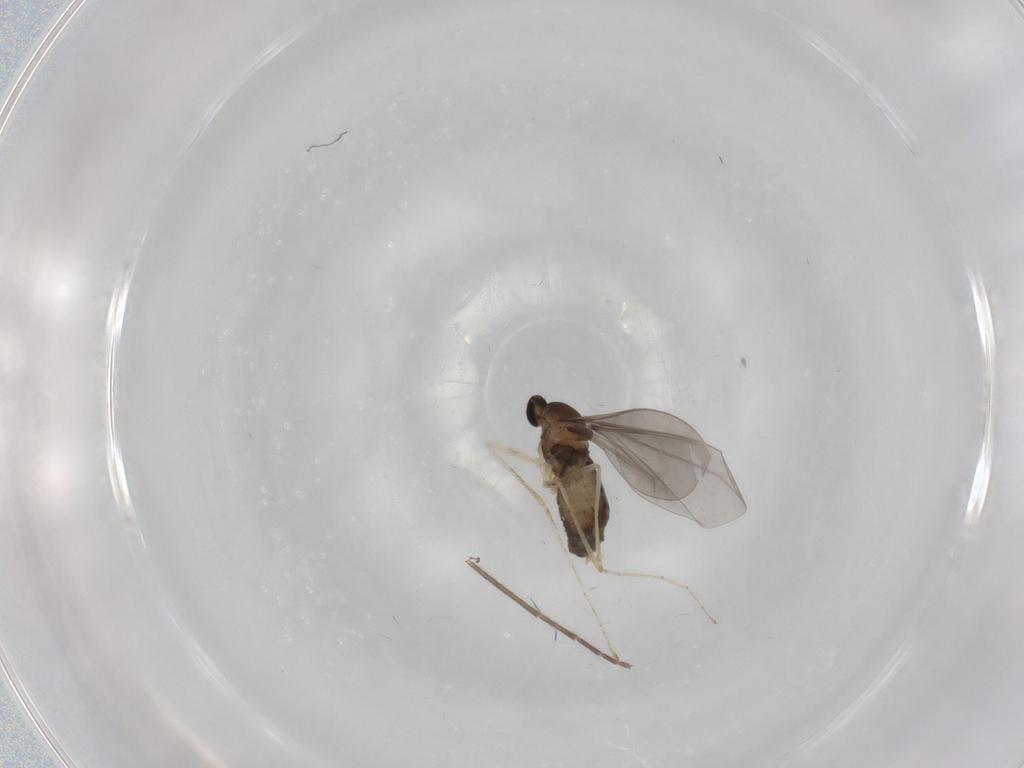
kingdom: Animalia
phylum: Arthropoda
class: Insecta
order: Diptera
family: Cecidomyiidae
